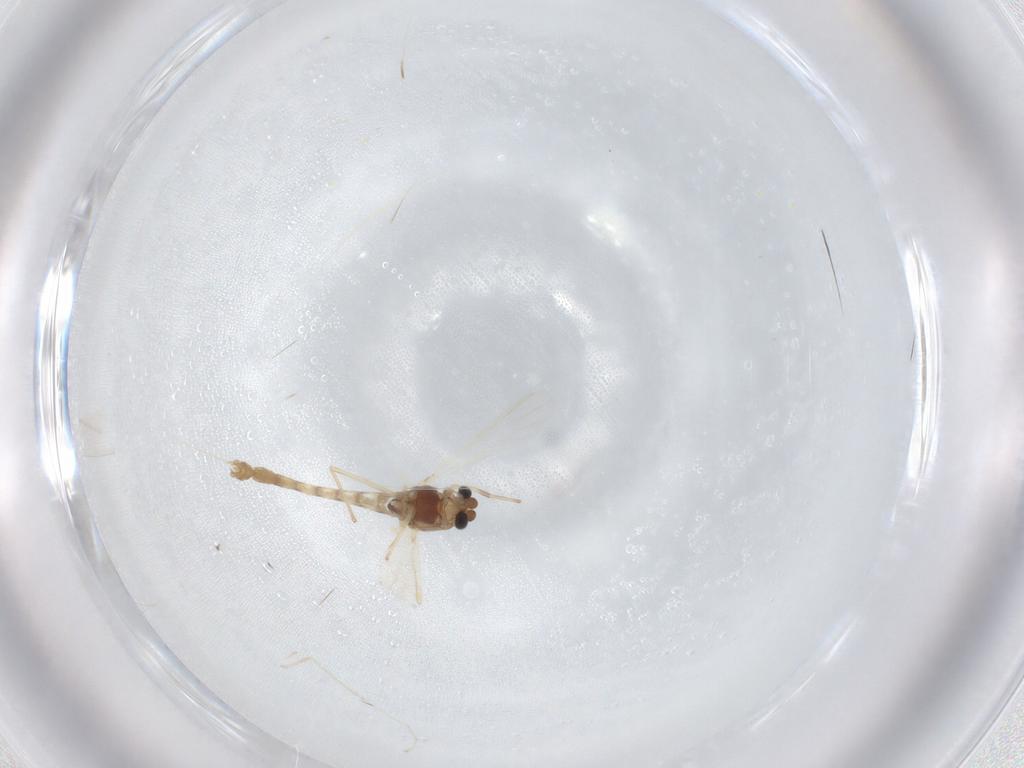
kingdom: Animalia
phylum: Arthropoda
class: Insecta
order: Diptera
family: Chironomidae
